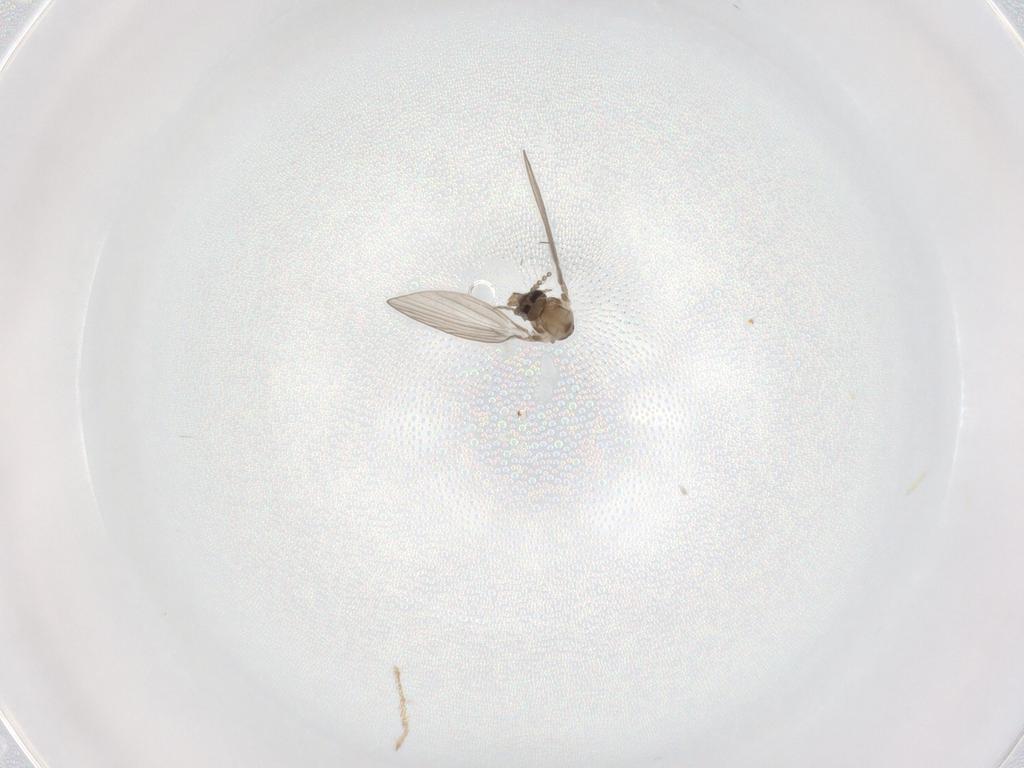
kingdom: Animalia
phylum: Arthropoda
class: Insecta
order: Diptera
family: Psychodidae
